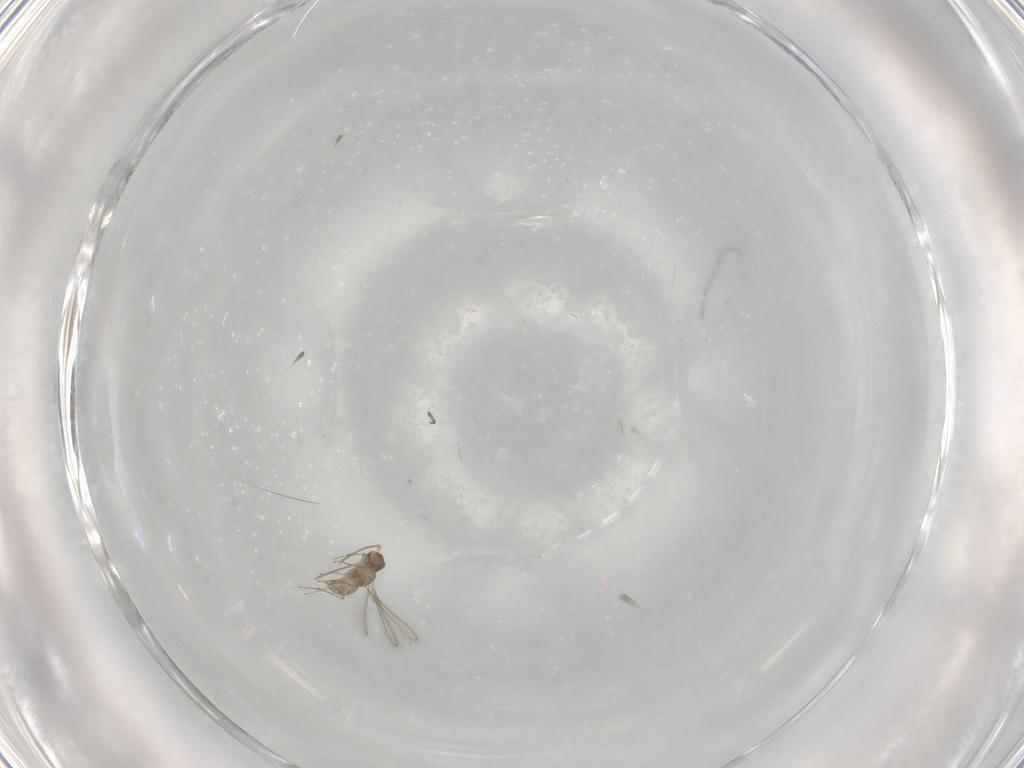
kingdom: Animalia
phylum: Arthropoda
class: Insecta
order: Hymenoptera
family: Mymaridae
